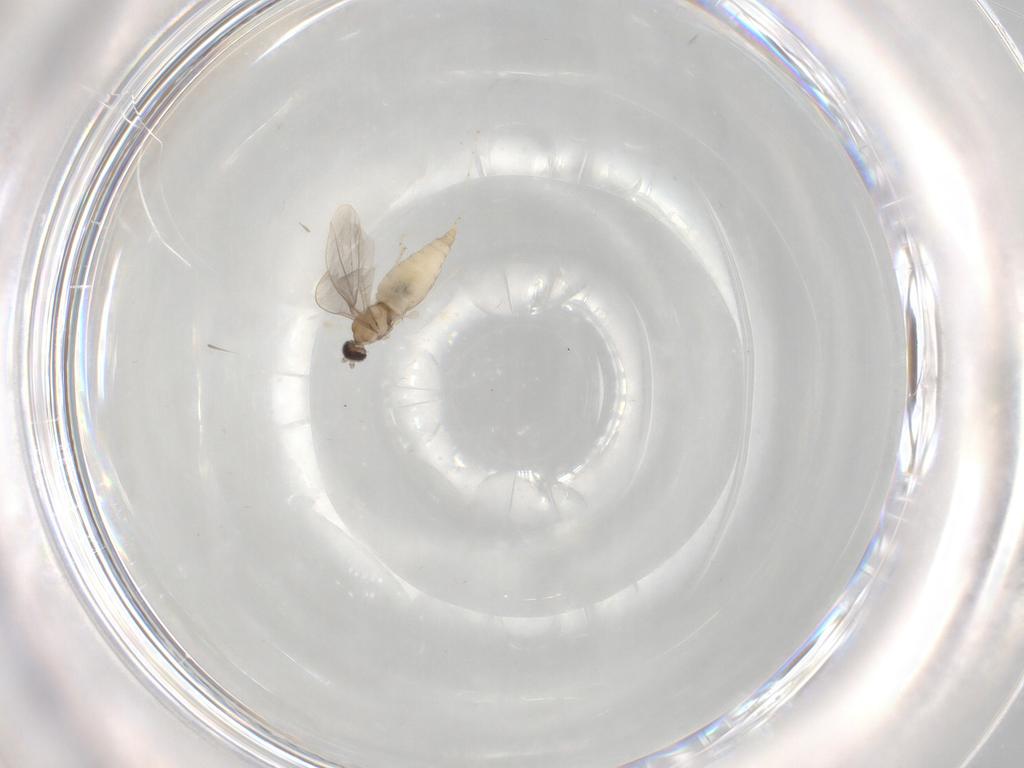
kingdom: Animalia
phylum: Arthropoda
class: Insecta
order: Diptera
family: Cecidomyiidae
